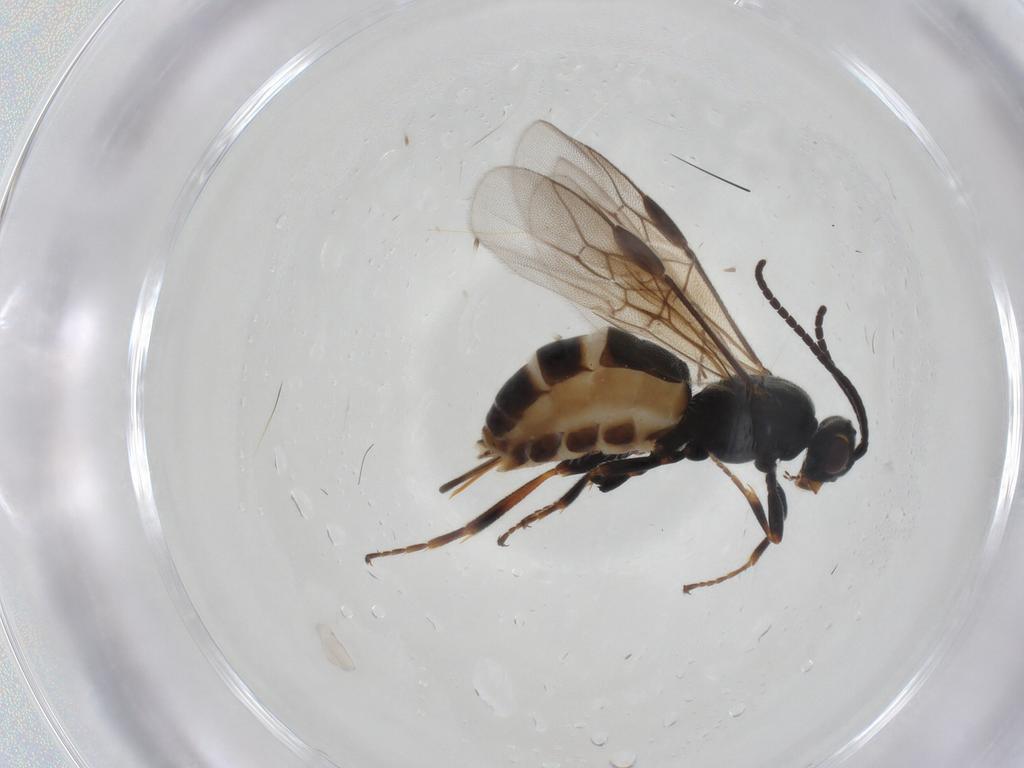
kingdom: Animalia
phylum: Arthropoda
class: Insecta
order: Hymenoptera
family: Braconidae
